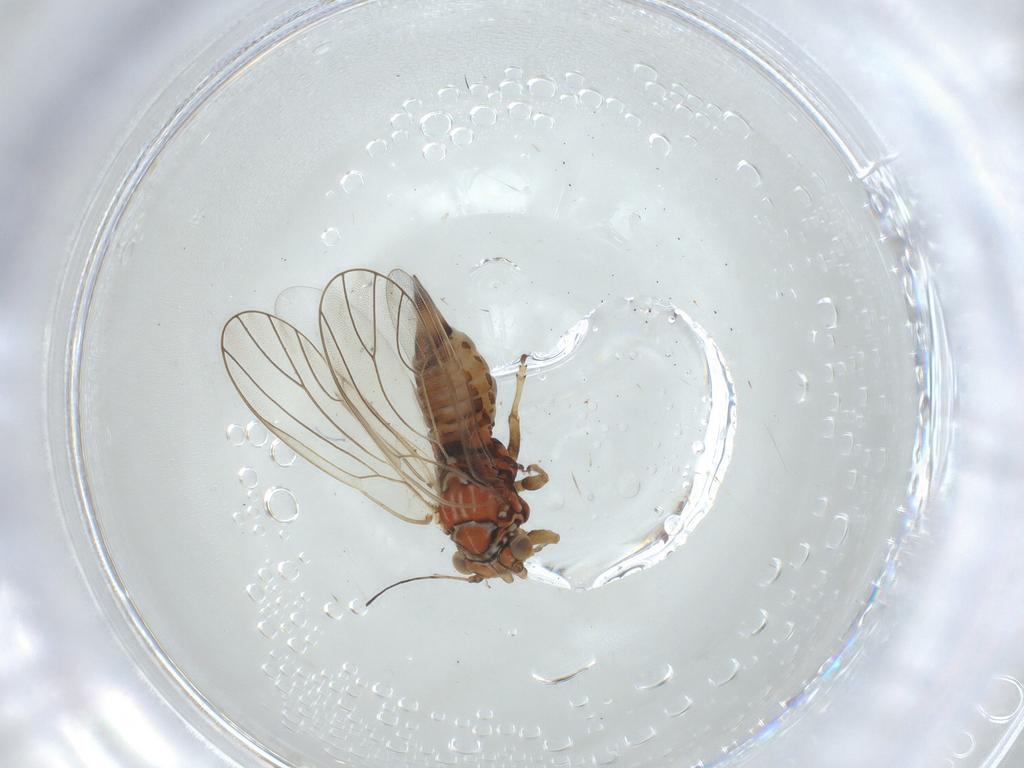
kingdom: Animalia
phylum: Arthropoda
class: Insecta
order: Hemiptera
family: Psyllidae
